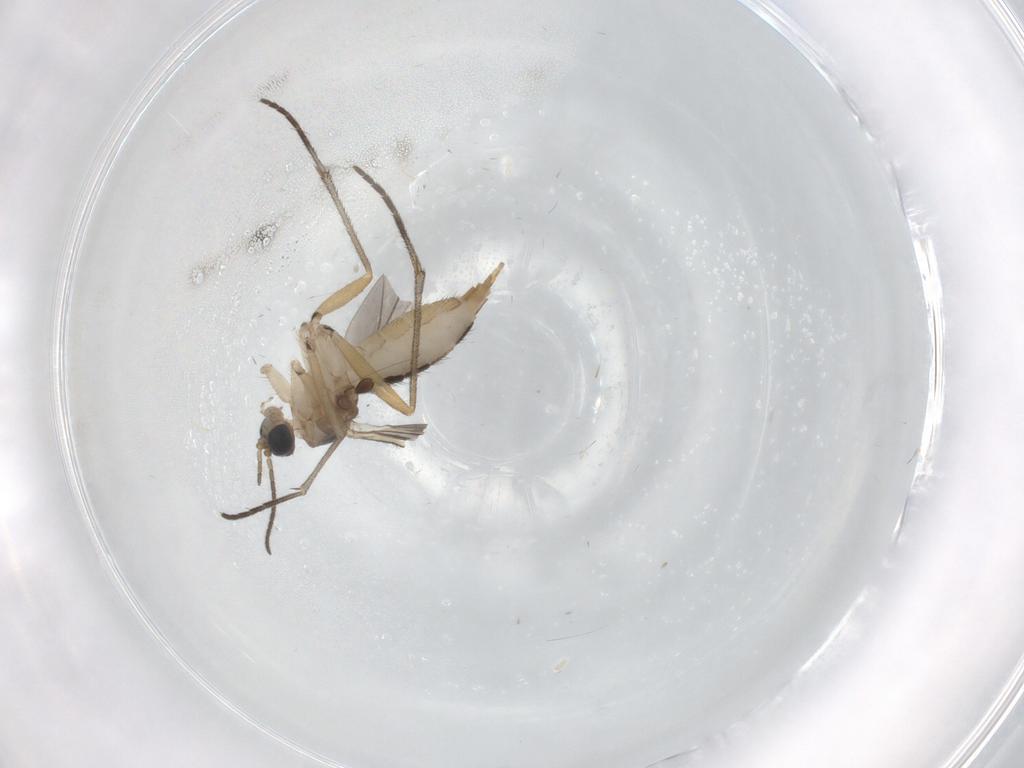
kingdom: Animalia
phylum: Arthropoda
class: Insecta
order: Diptera
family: Sciaridae
